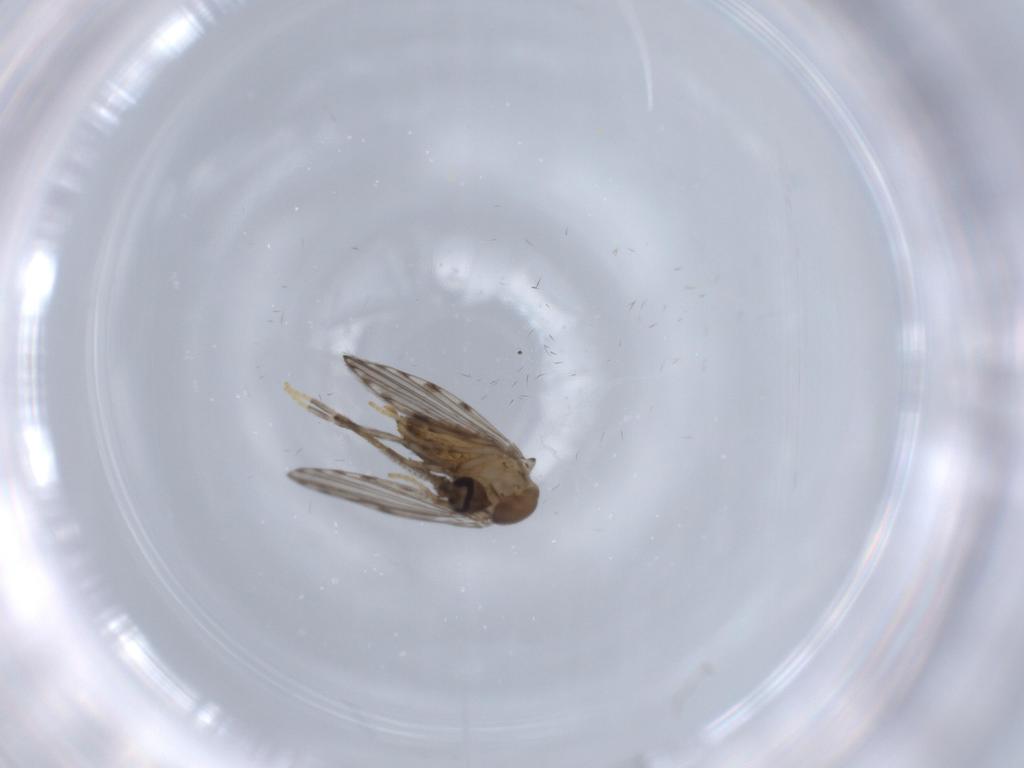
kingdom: Animalia
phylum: Arthropoda
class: Insecta
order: Diptera
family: Psychodidae
